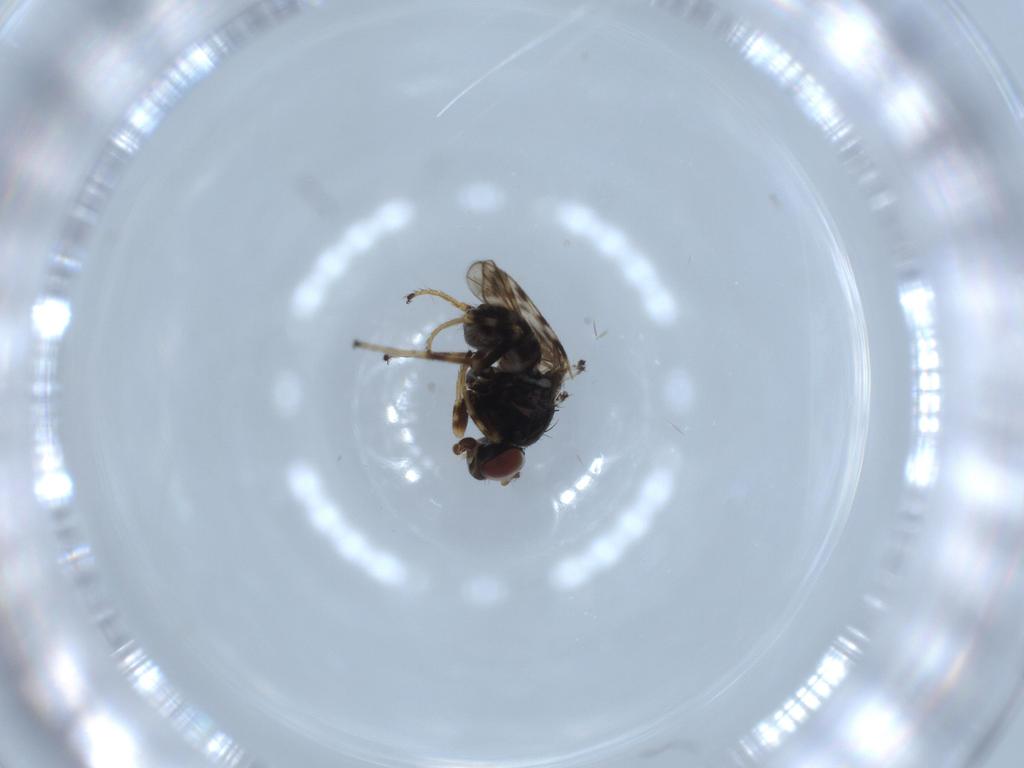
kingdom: Animalia
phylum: Arthropoda
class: Insecta
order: Diptera
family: Ephydridae
